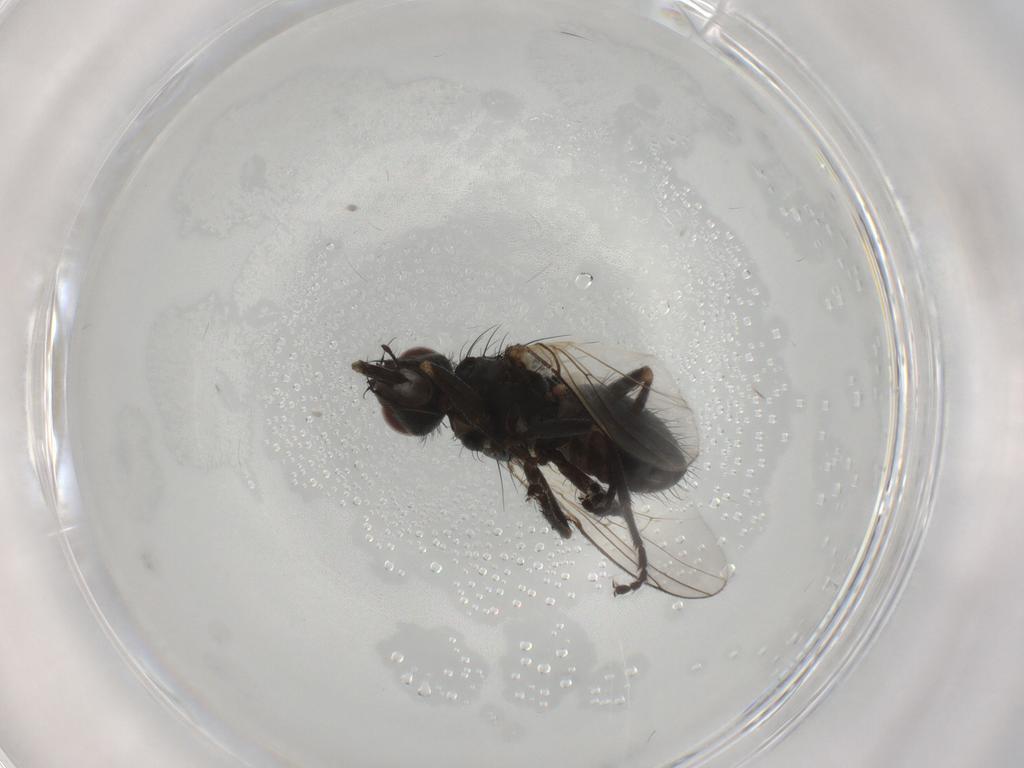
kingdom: Animalia
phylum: Arthropoda
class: Insecta
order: Diptera
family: Muscidae
